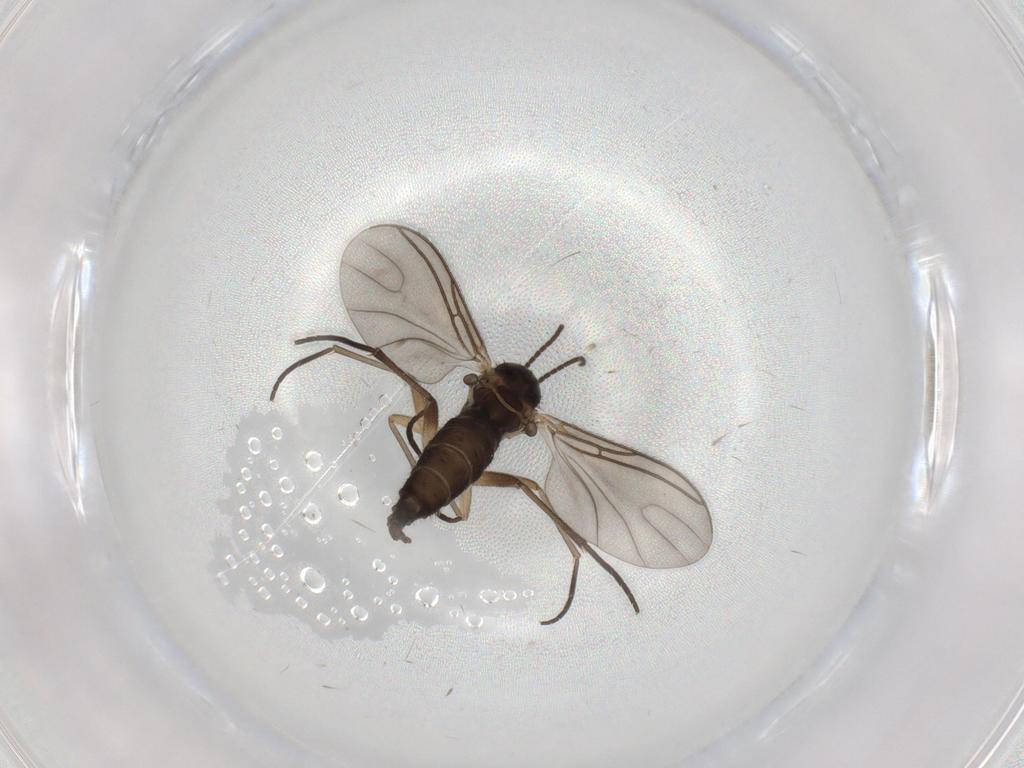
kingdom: Animalia
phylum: Arthropoda
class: Insecta
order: Diptera
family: Sciaridae
